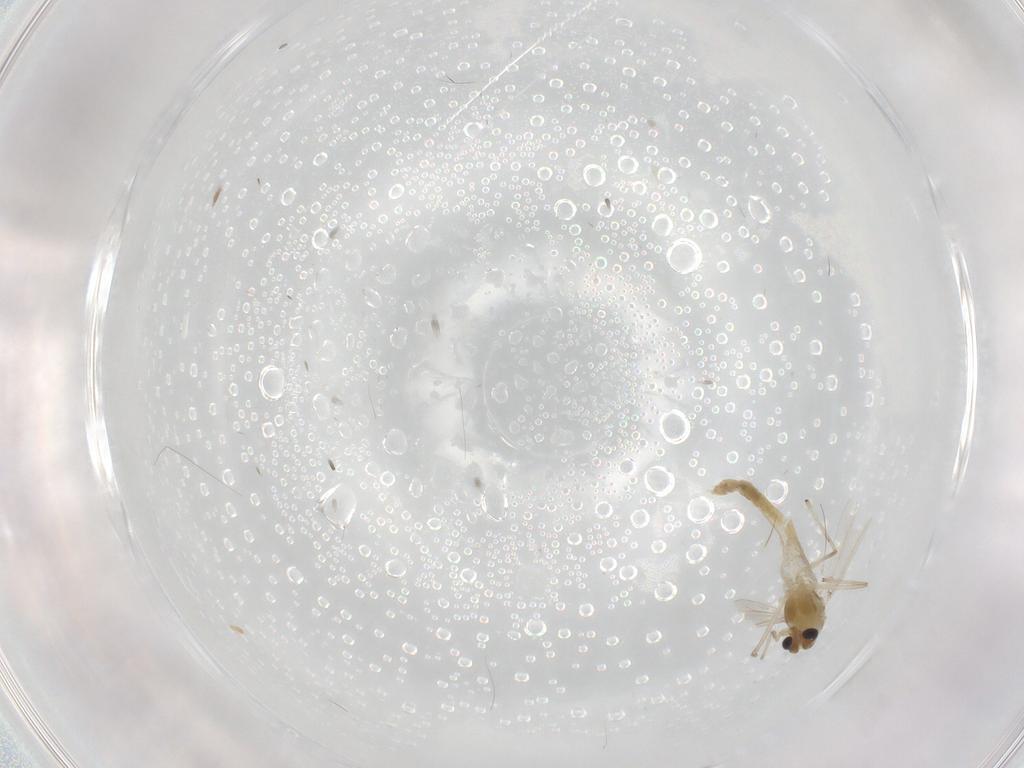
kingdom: Animalia
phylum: Arthropoda
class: Insecta
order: Diptera
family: Chironomidae
